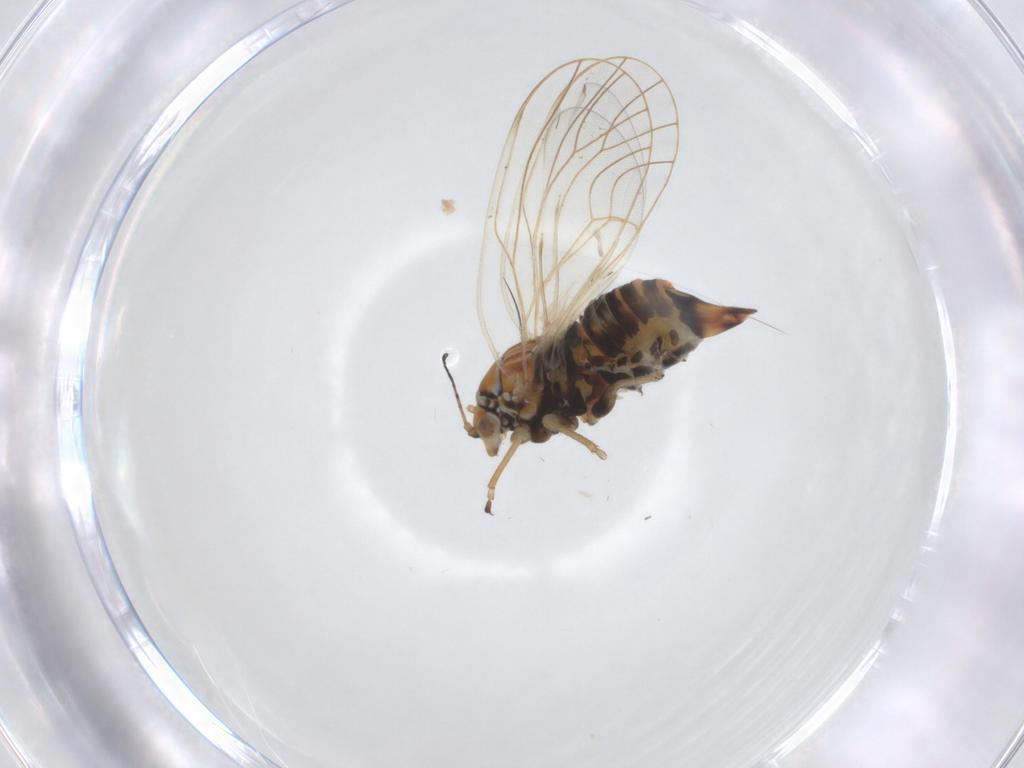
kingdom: Animalia
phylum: Arthropoda
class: Insecta
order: Hemiptera
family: Psyllidae
